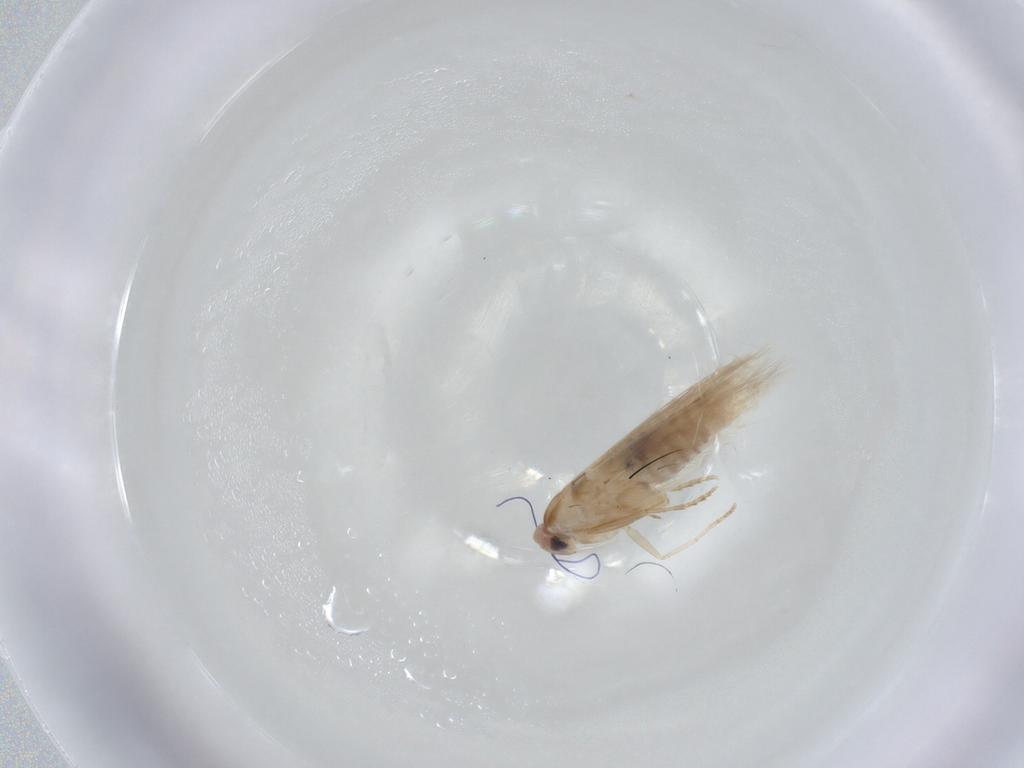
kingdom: Animalia
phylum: Arthropoda
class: Insecta
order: Lepidoptera
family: Bucculatricidae
